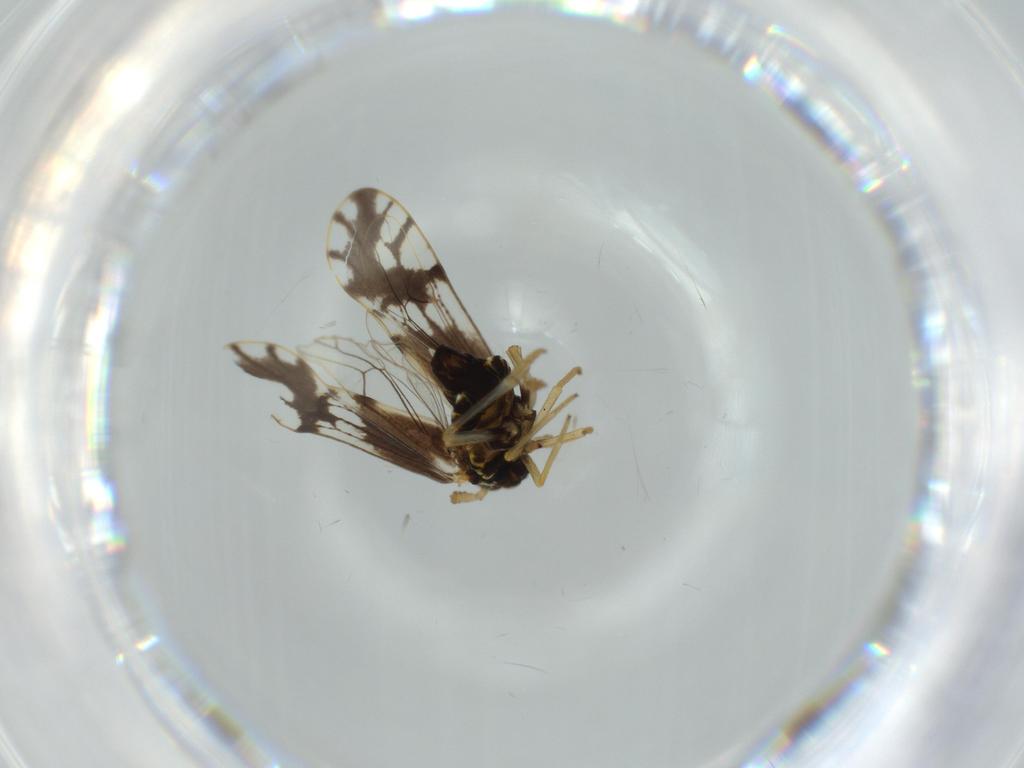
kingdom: Animalia
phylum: Arthropoda
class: Insecta
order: Hemiptera
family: Delphacidae
